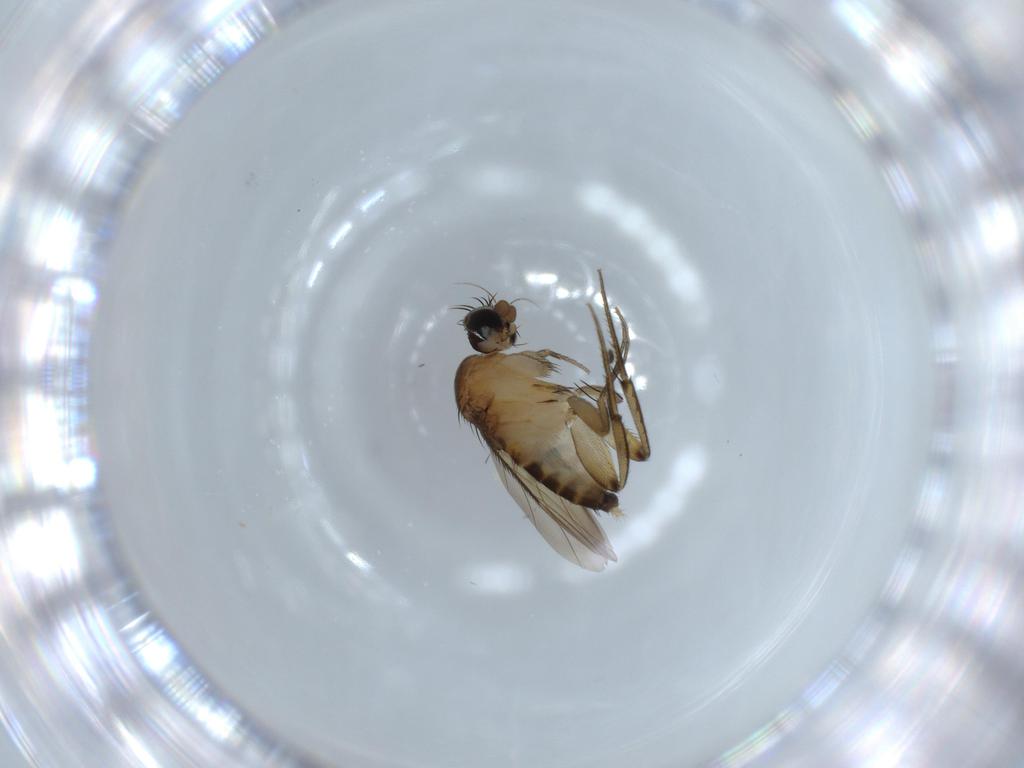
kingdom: Animalia
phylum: Arthropoda
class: Insecta
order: Diptera
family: Phoridae
